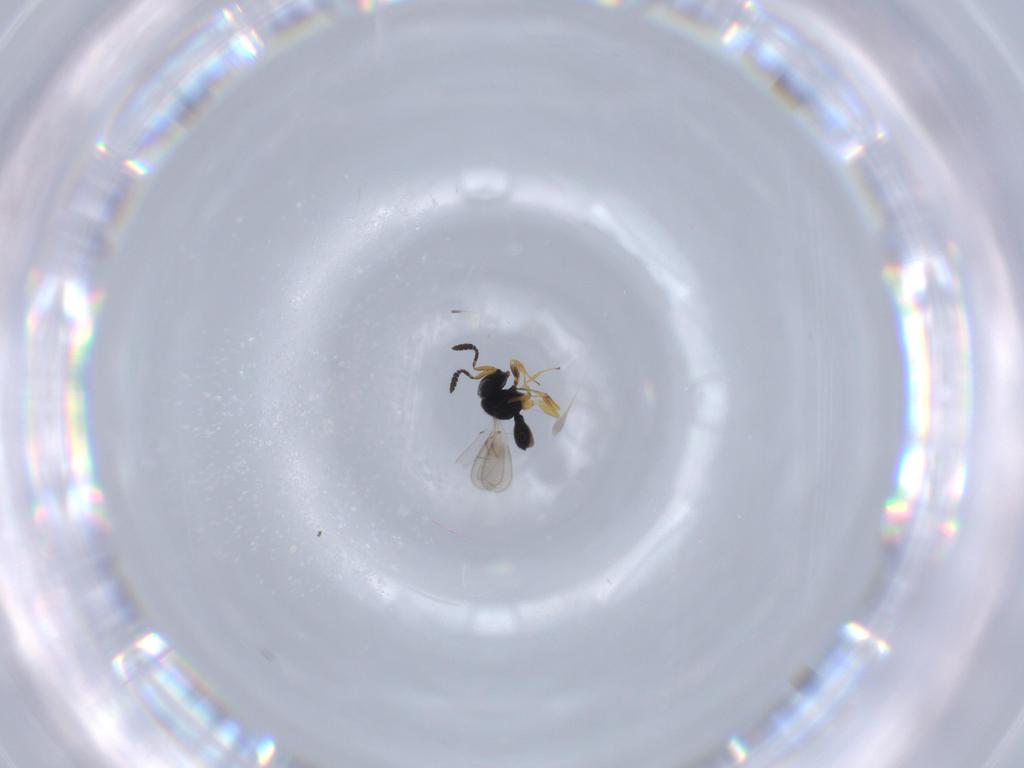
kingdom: Animalia
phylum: Arthropoda
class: Insecta
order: Hymenoptera
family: Scelionidae
